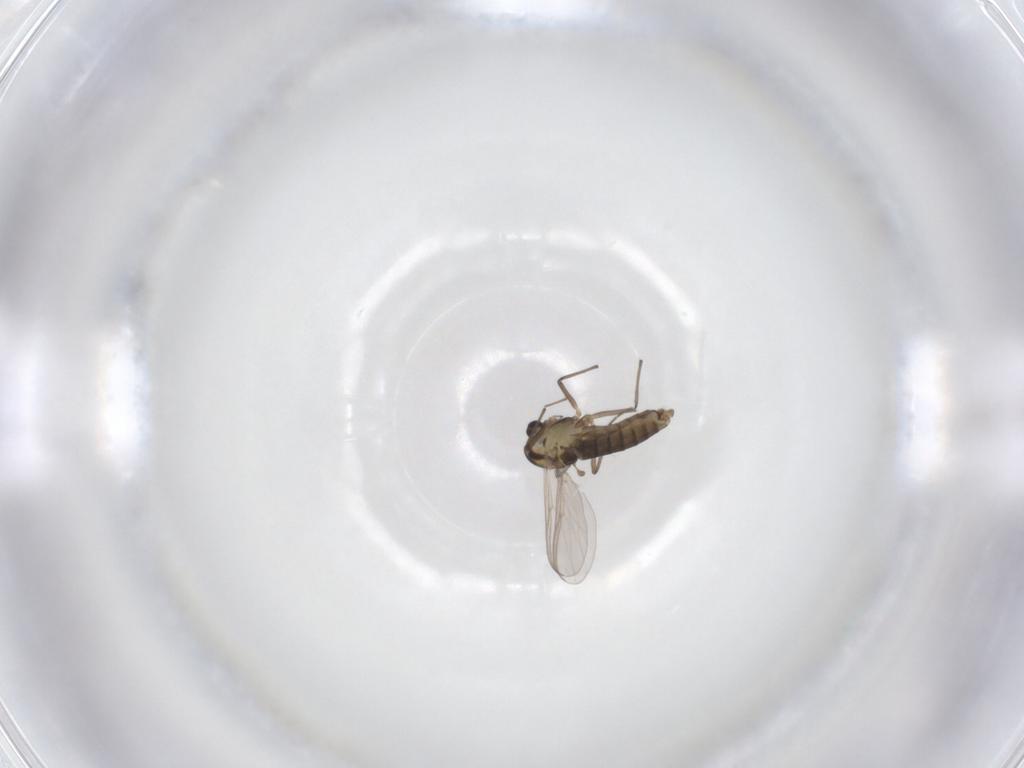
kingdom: Animalia
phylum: Arthropoda
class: Insecta
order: Diptera
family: Chironomidae
